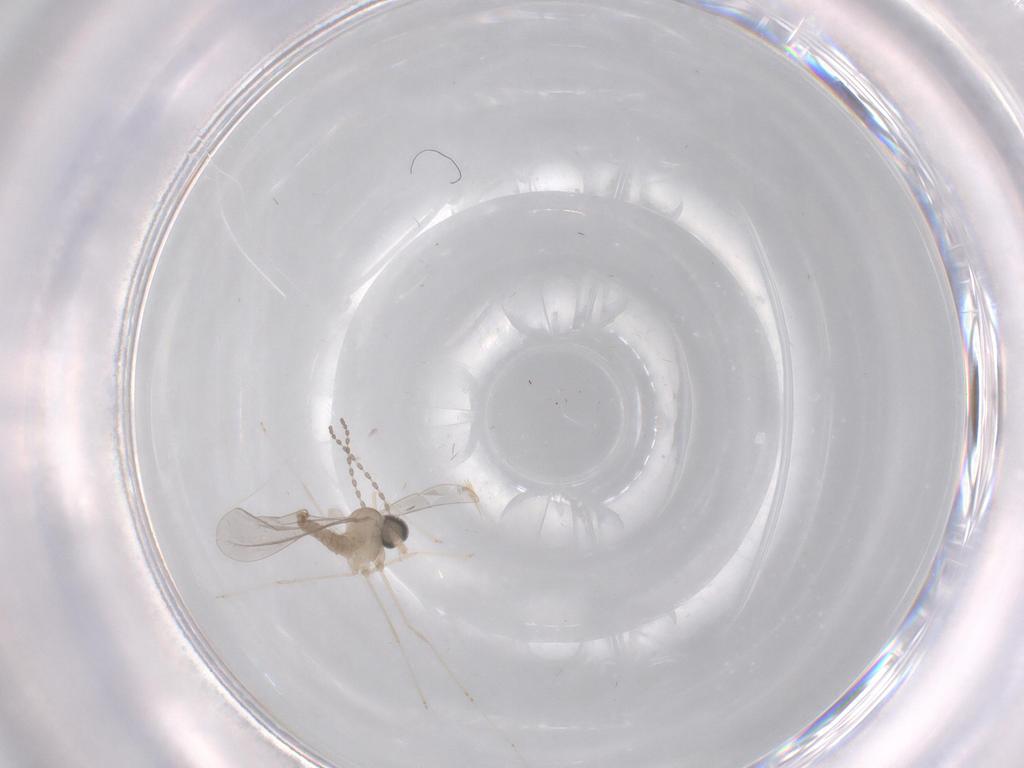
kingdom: Animalia
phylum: Arthropoda
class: Insecta
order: Diptera
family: Cecidomyiidae
